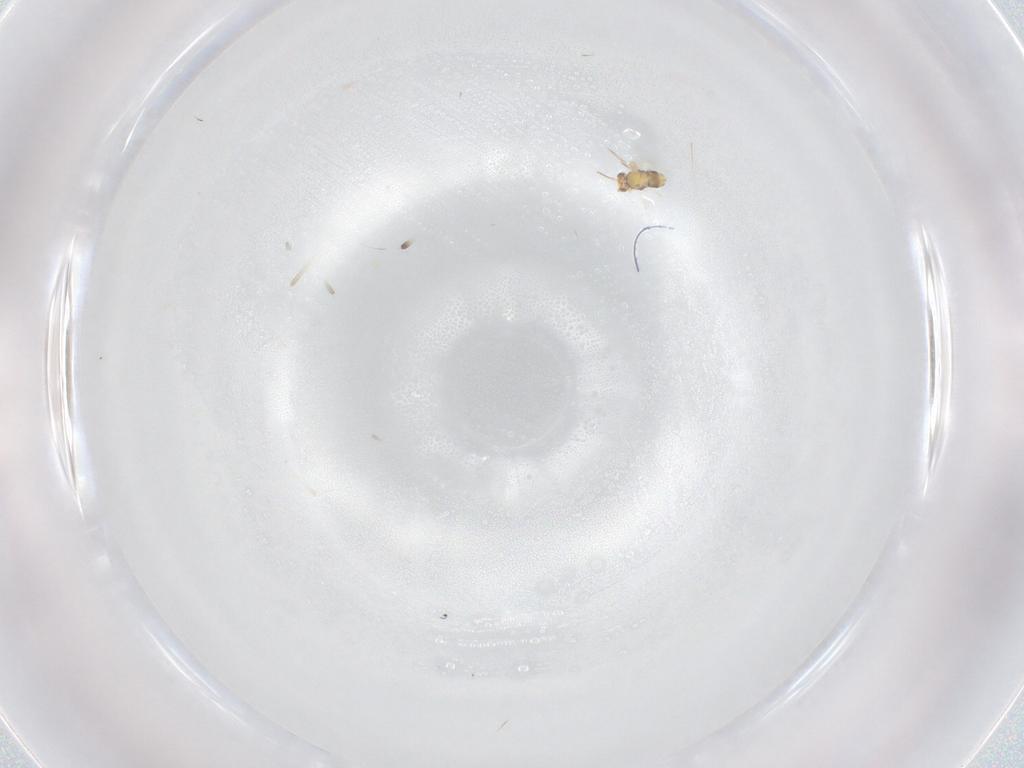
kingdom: Animalia
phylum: Arthropoda
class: Insecta
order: Hymenoptera
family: Aphelinidae
